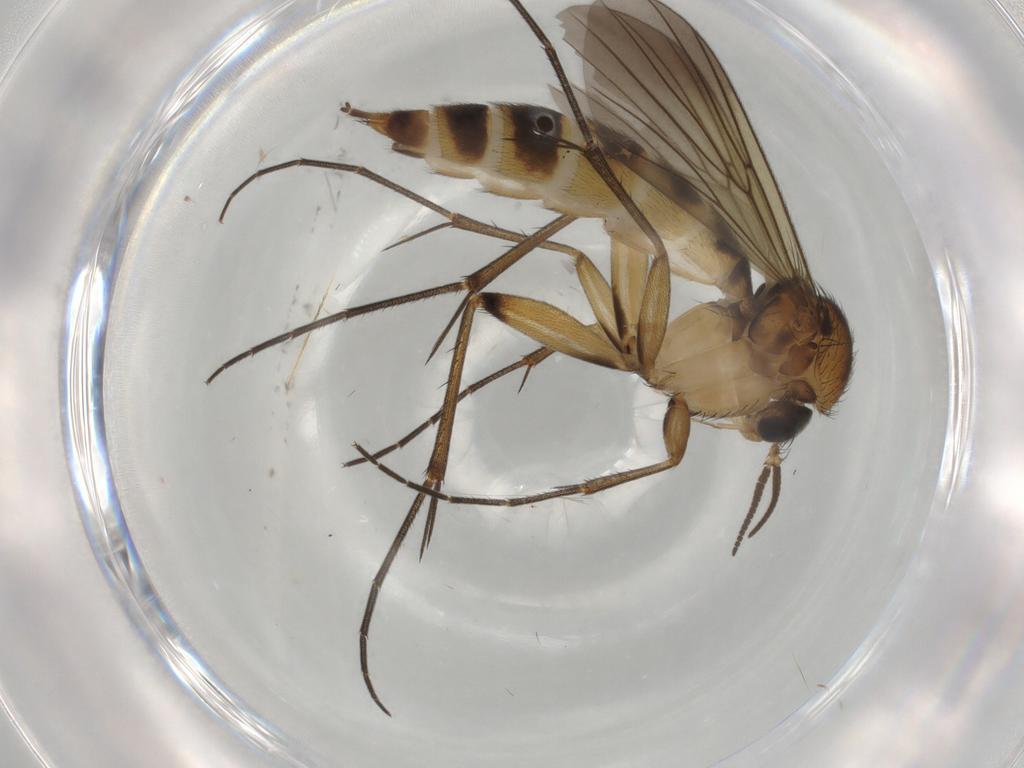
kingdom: Animalia
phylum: Arthropoda
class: Insecta
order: Diptera
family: Mycetophilidae
